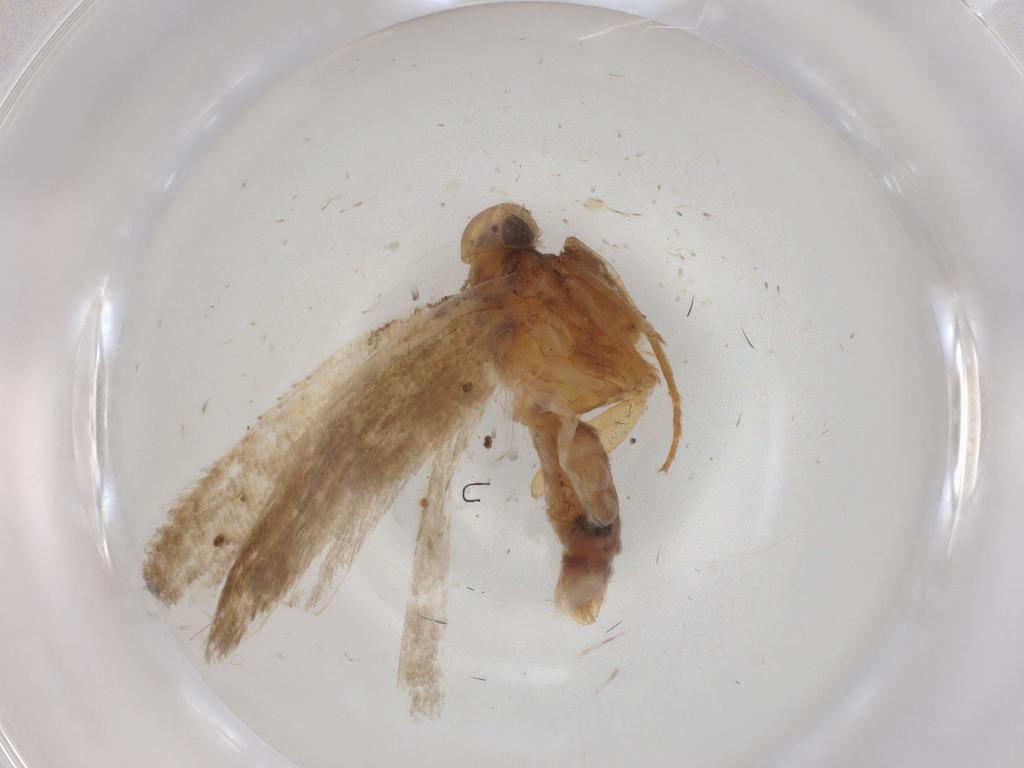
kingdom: Animalia
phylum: Arthropoda
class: Insecta
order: Lepidoptera
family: Gelechiidae
